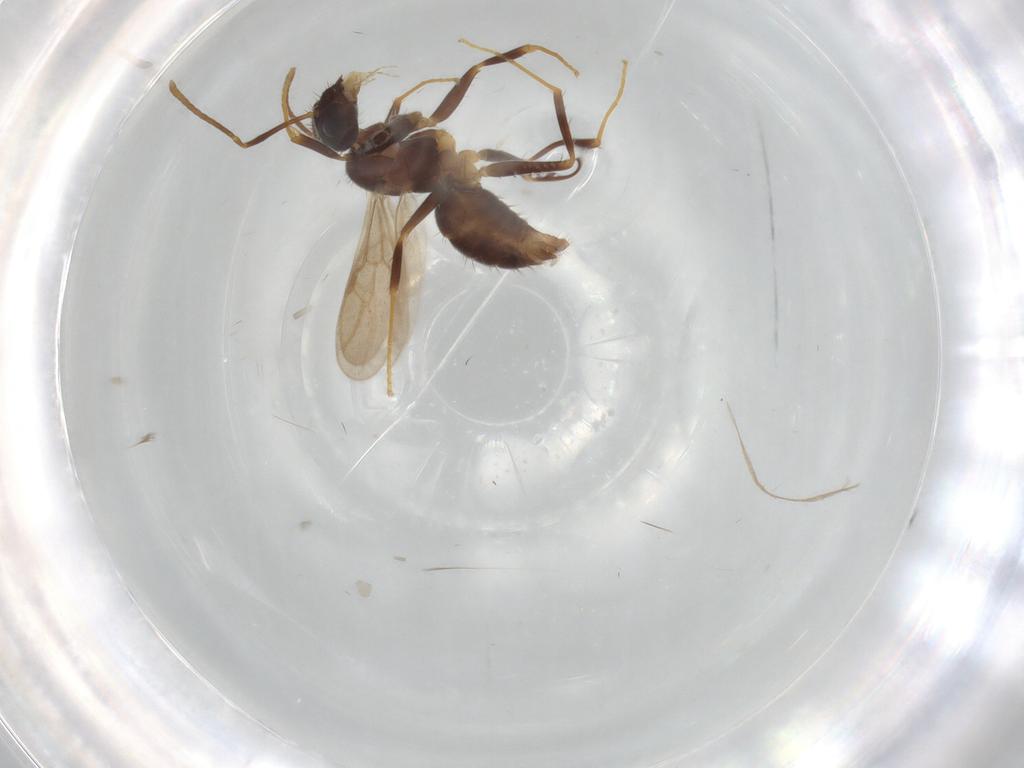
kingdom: Animalia
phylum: Arthropoda
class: Insecta
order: Hymenoptera
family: Formicidae
